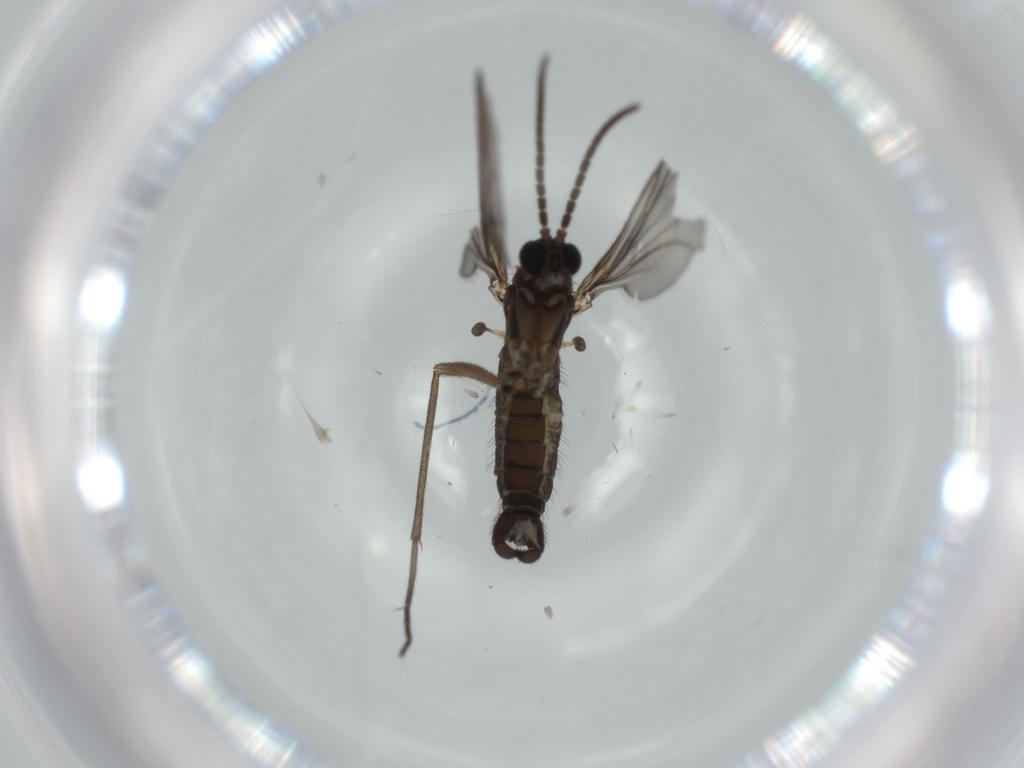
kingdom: Animalia
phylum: Arthropoda
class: Insecta
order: Diptera
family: Sciaridae
